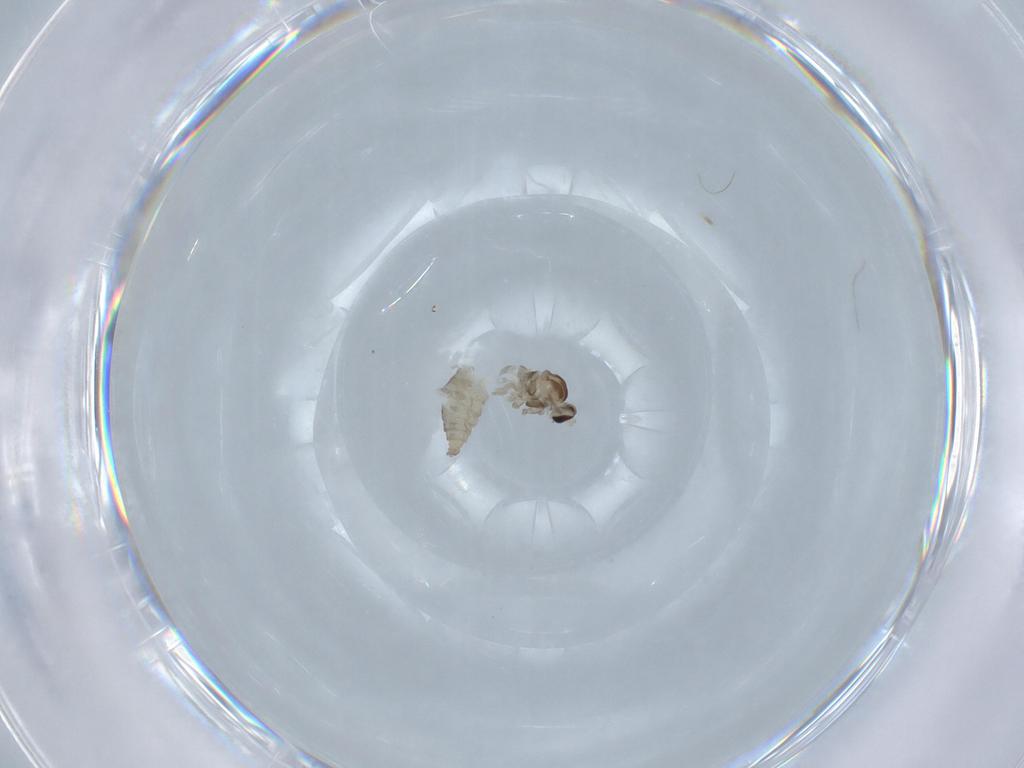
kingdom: Animalia
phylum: Arthropoda
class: Insecta
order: Diptera
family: Cecidomyiidae
